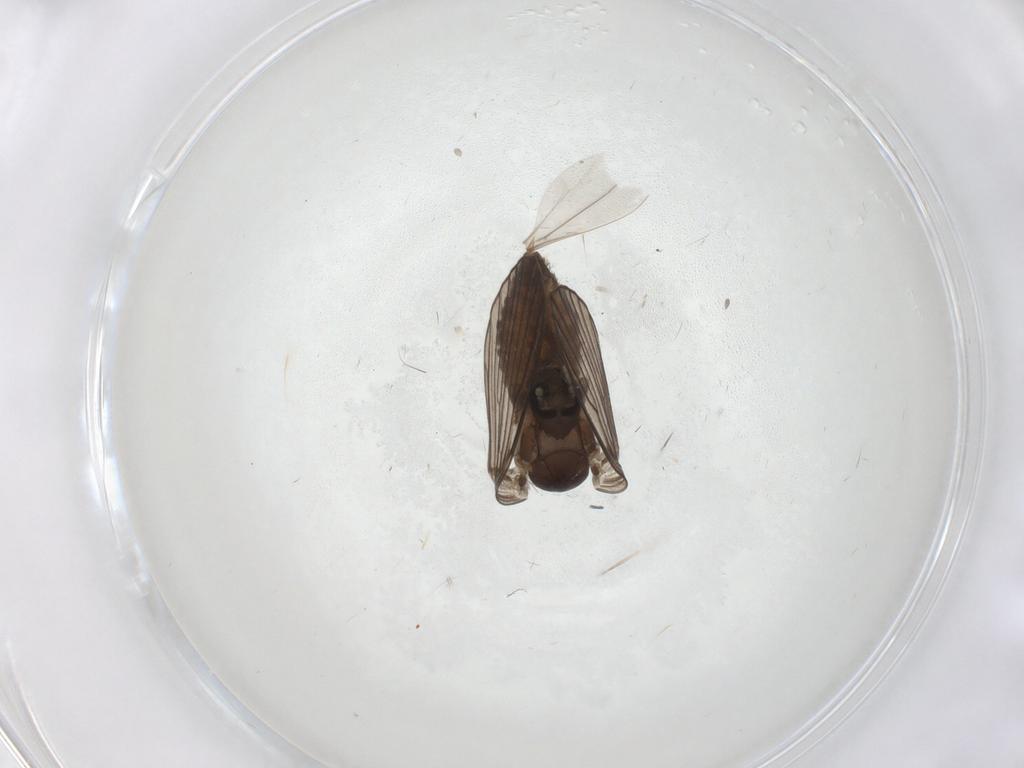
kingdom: Animalia
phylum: Arthropoda
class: Insecta
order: Diptera
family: Psychodidae
